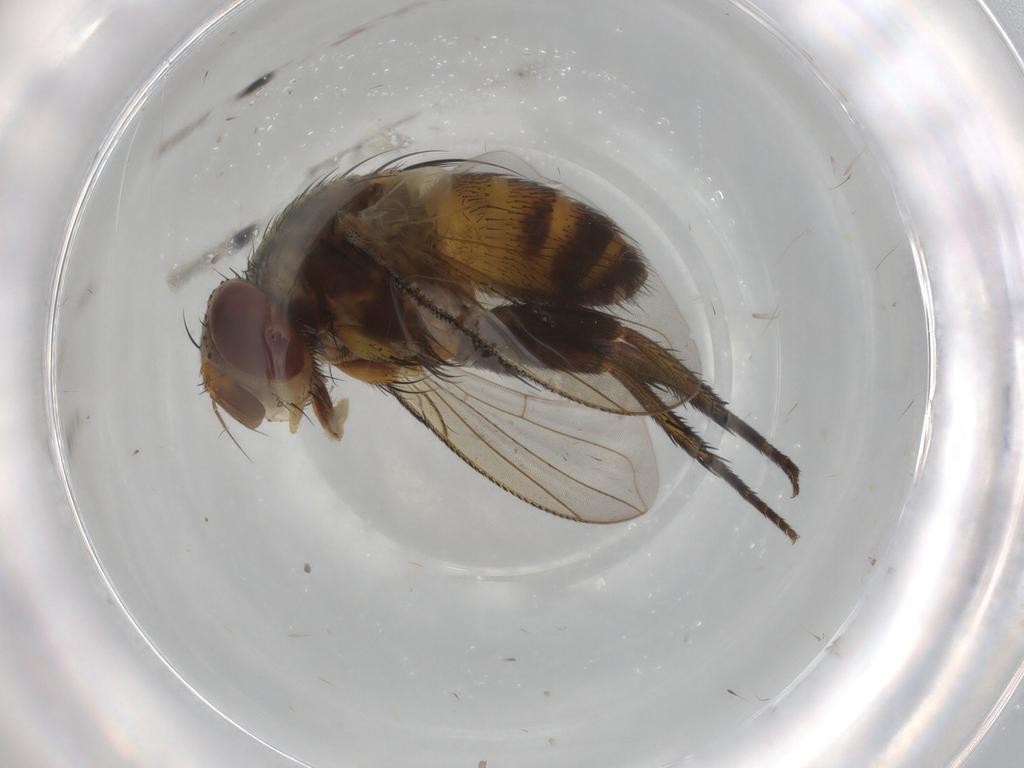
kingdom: Animalia
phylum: Arthropoda
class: Insecta
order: Diptera
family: Tachinidae
